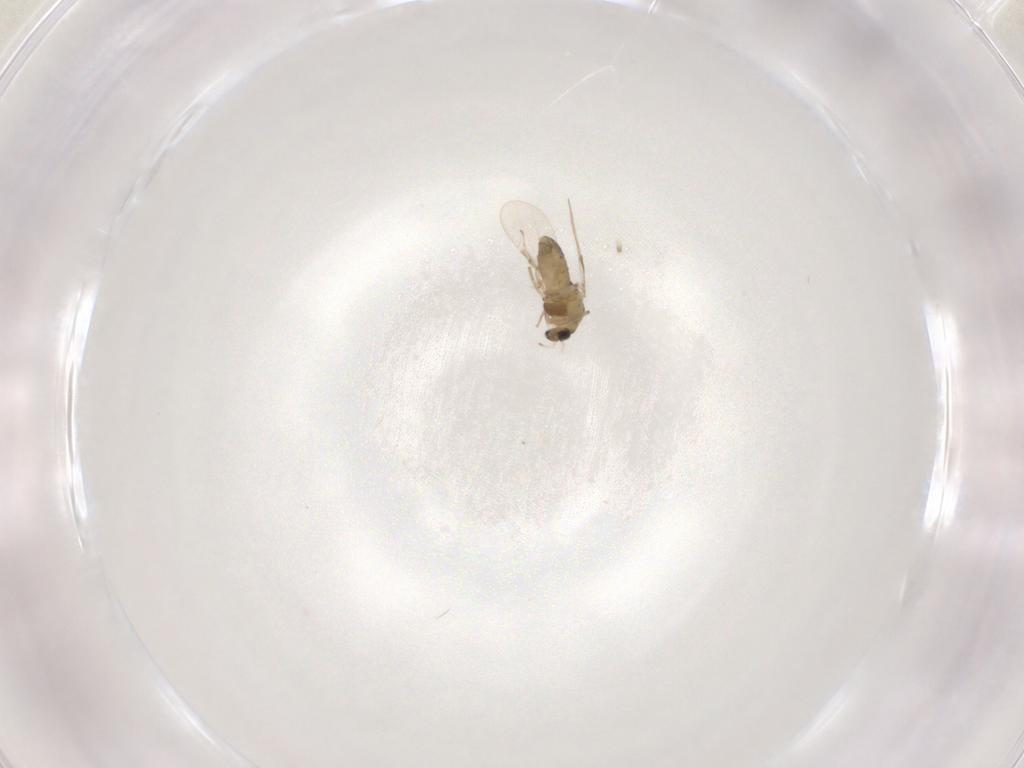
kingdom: Animalia
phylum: Arthropoda
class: Insecta
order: Diptera
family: Chironomidae
